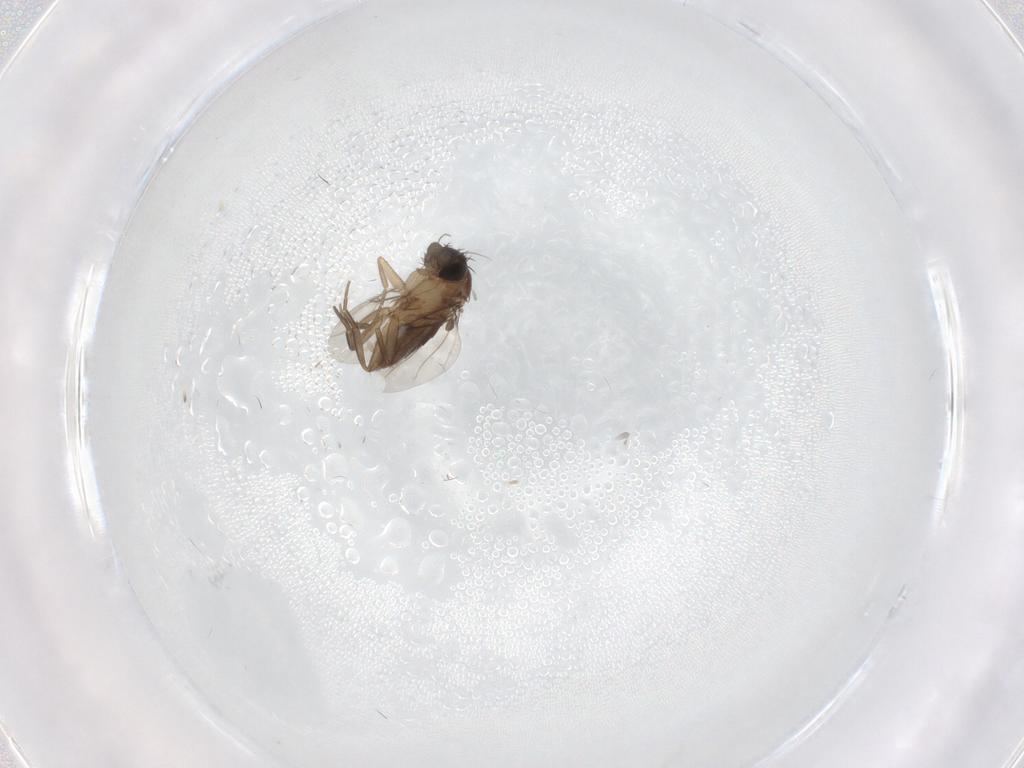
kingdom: Animalia
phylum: Arthropoda
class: Insecta
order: Diptera
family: Phoridae
